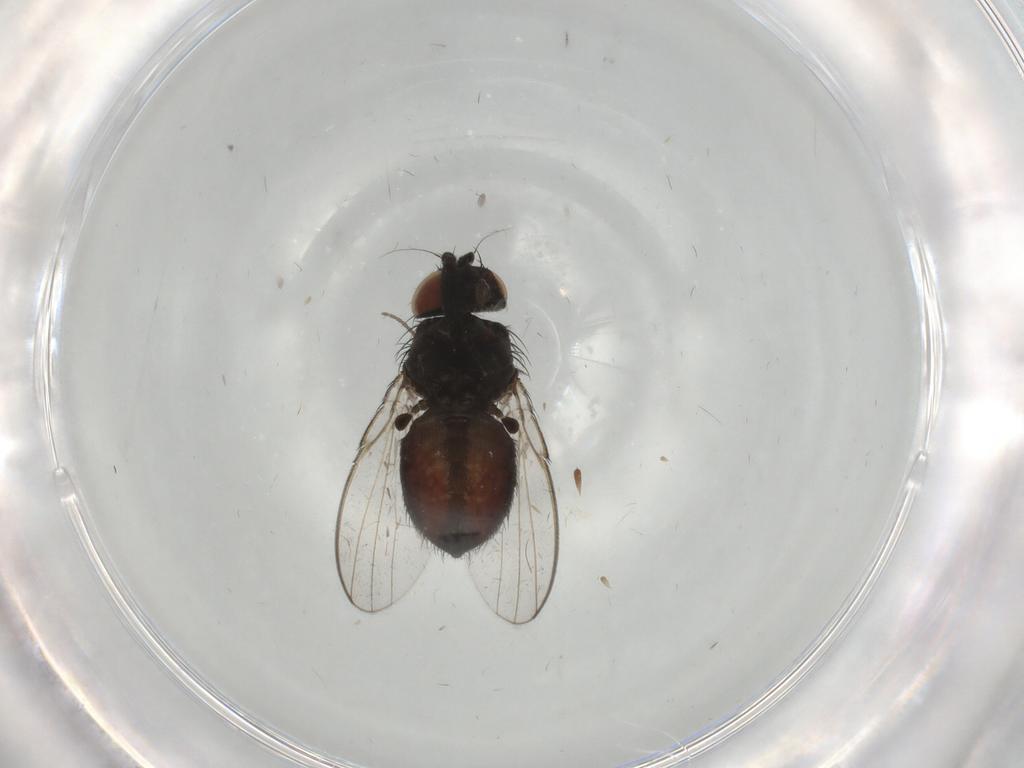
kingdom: Animalia
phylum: Arthropoda
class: Insecta
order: Diptera
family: Milichiidae
